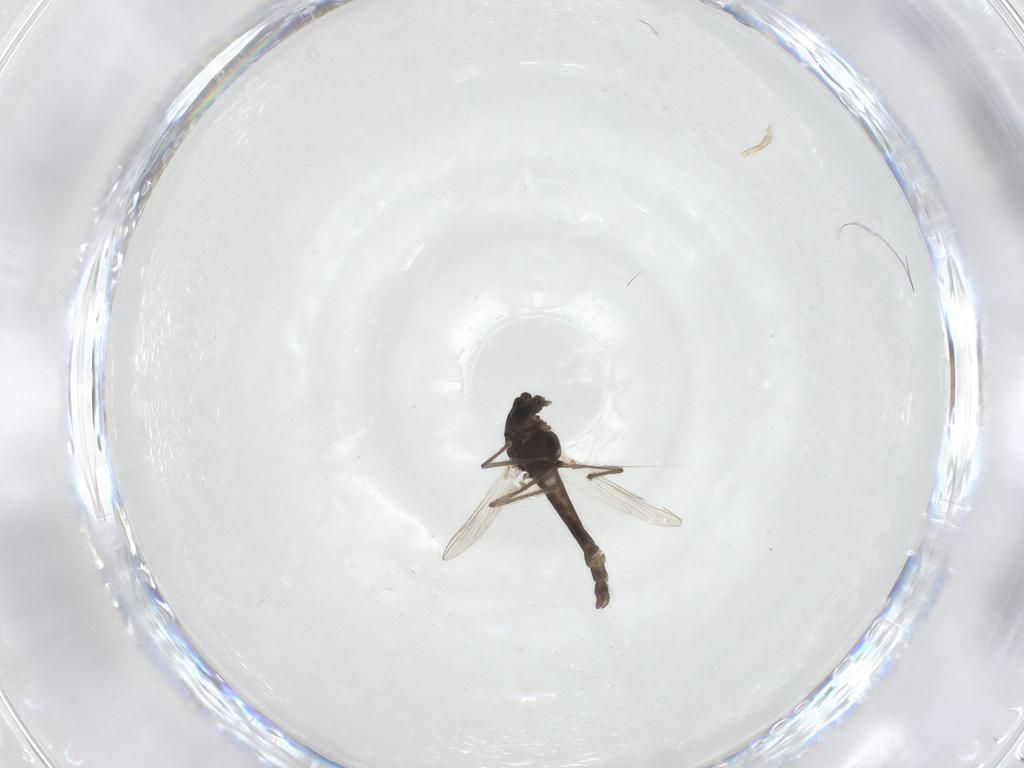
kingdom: Animalia
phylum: Arthropoda
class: Insecta
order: Diptera
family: Chironomidae
